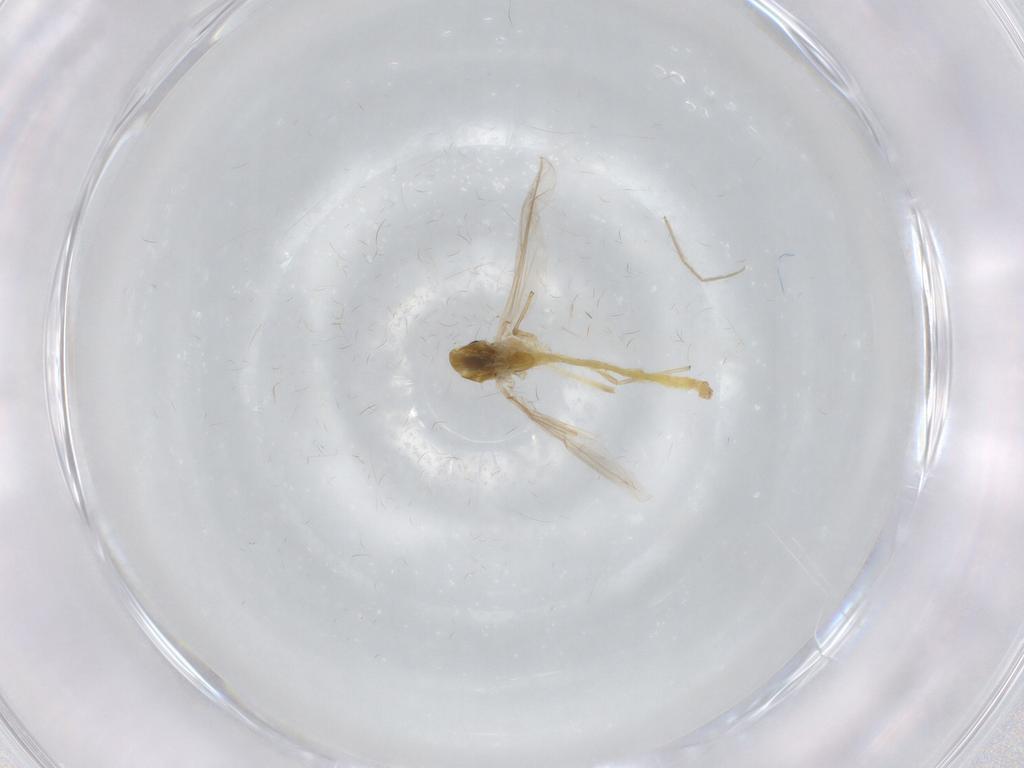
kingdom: Animalia
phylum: Arthropoda
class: Insecta
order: Diptera
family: Chironomidae
